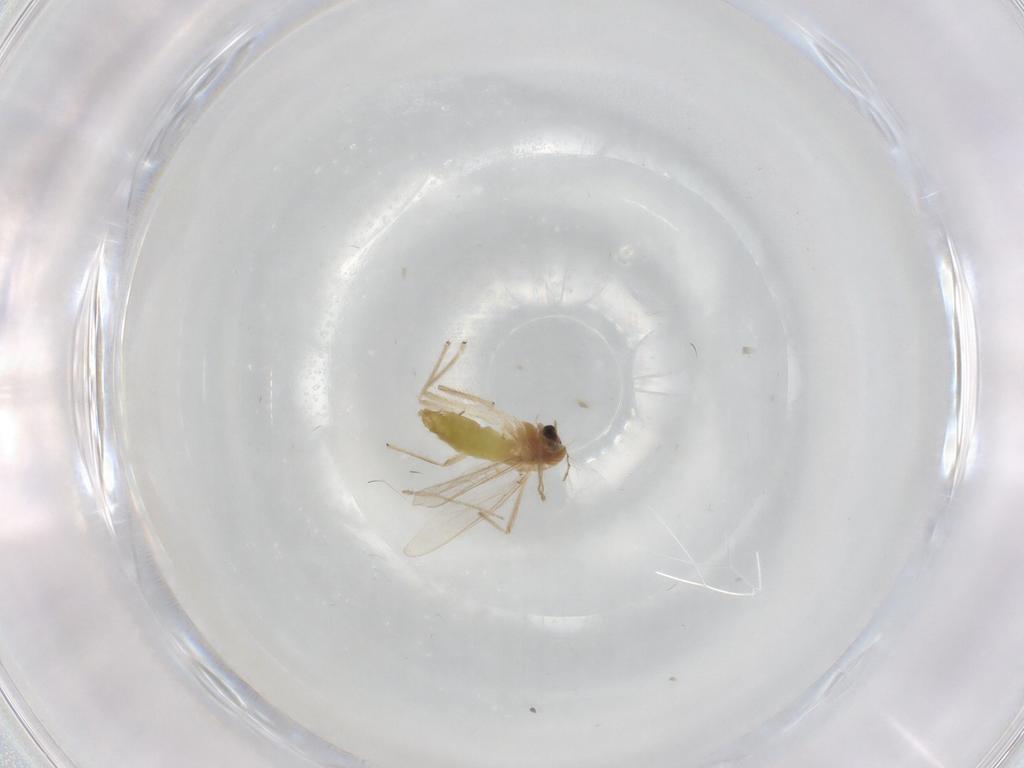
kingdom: Animalia
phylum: Arthropoda
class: Insecta
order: Diptera
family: Chironomidae
